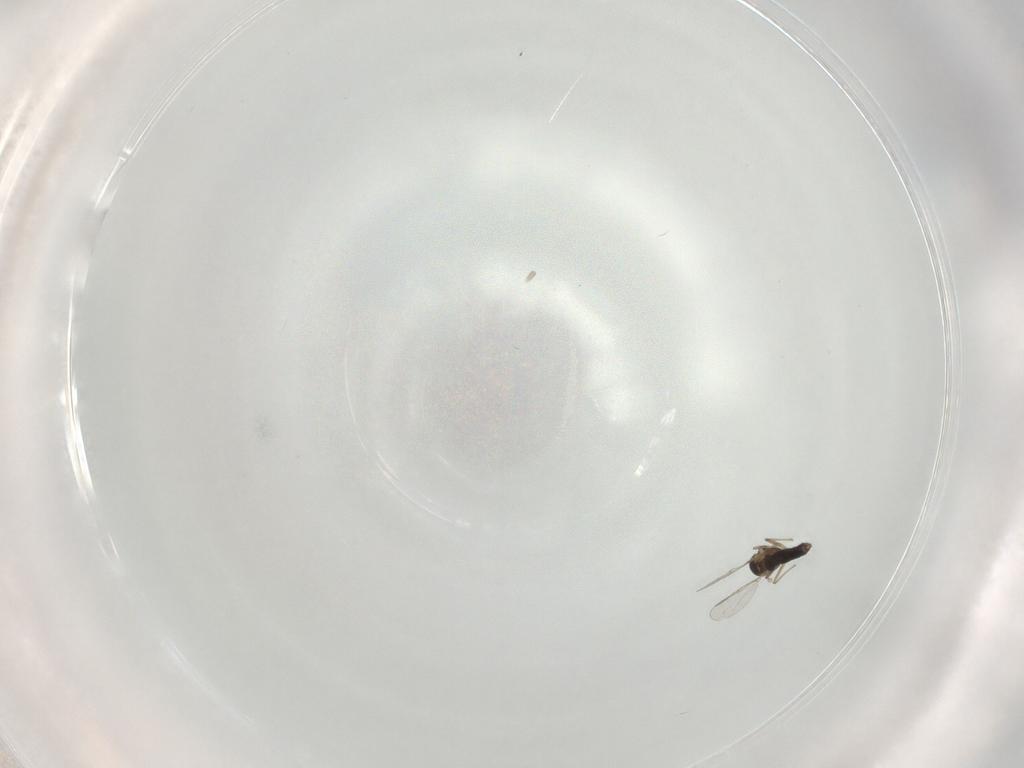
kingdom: Animalia
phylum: Arthropoda
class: Insecta
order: Diptera
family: Chironomidae
